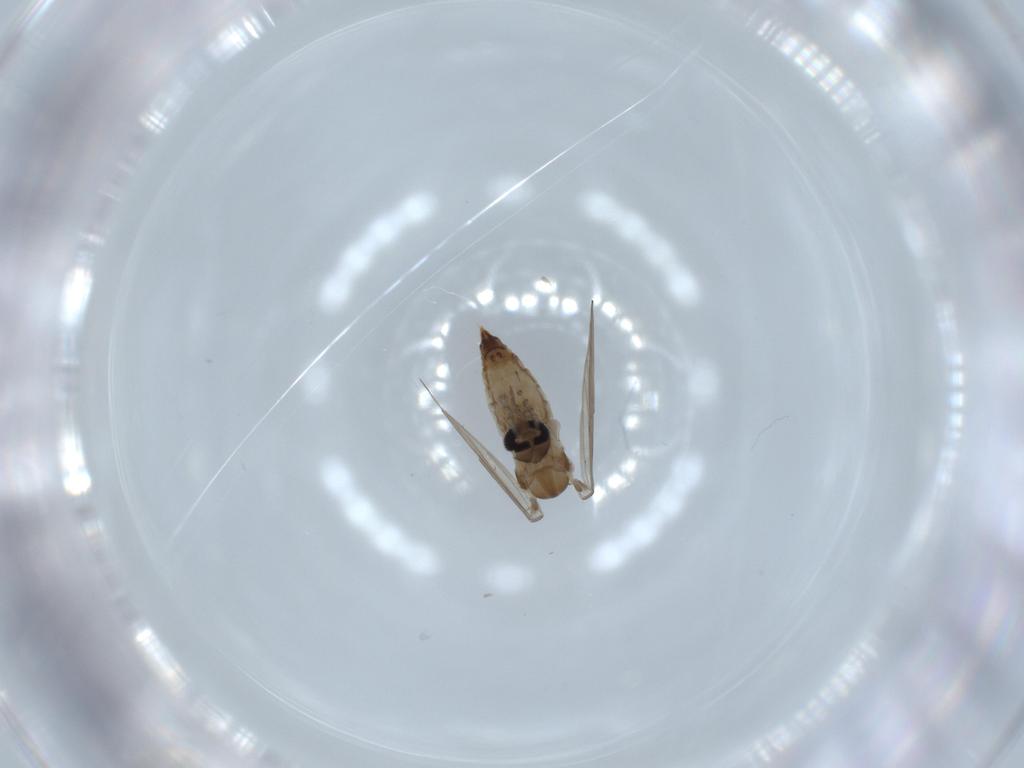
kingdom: Animalia
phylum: Arthropoda
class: Insecta
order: Diptera
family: Psychodidae
